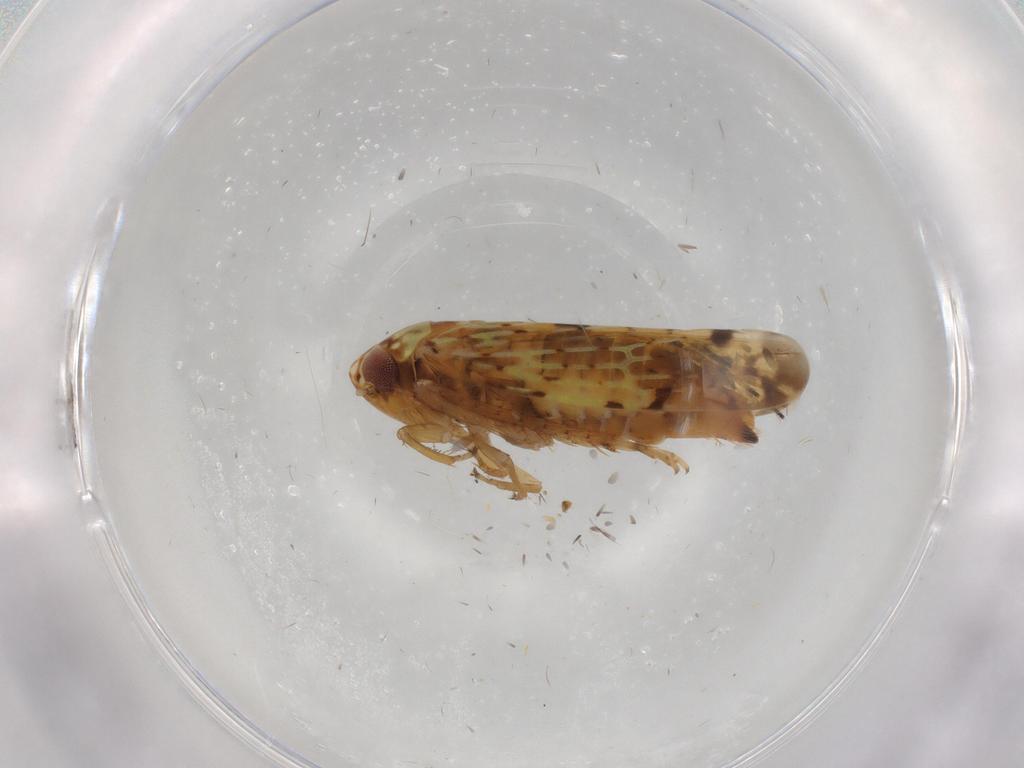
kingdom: Animalia
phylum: Arthropoda
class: Insecta
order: Hemiptera
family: Cicadellidae
